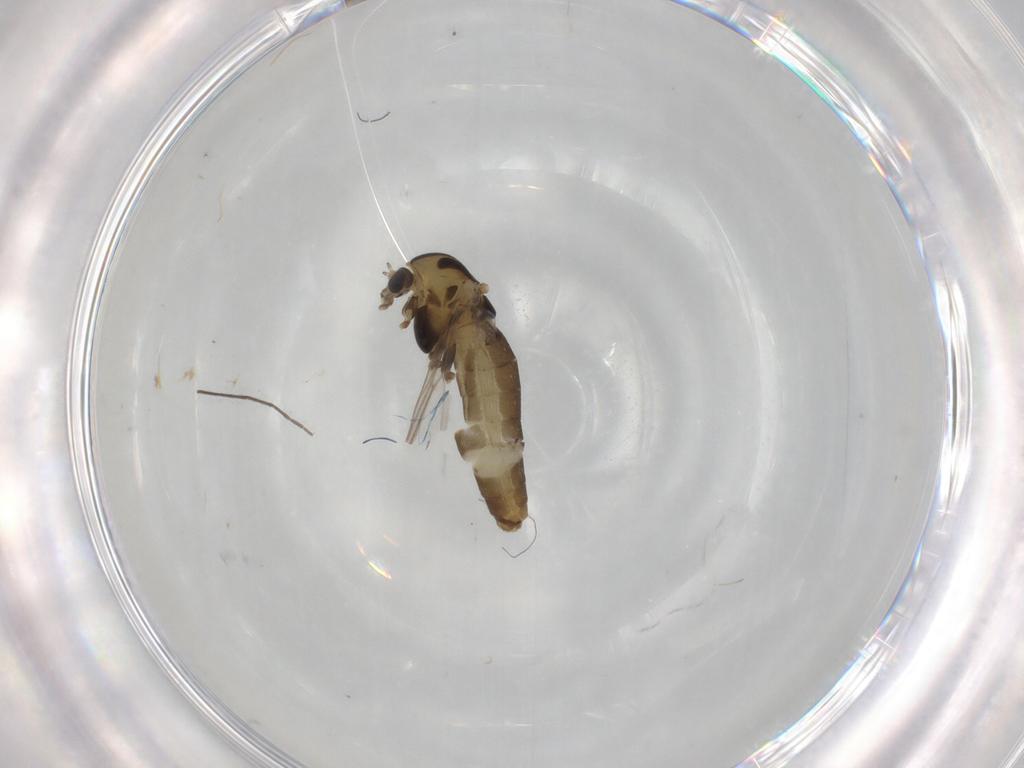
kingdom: Animalia
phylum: Arthropoda
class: Insecta
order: Diptera
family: Chironomidae
